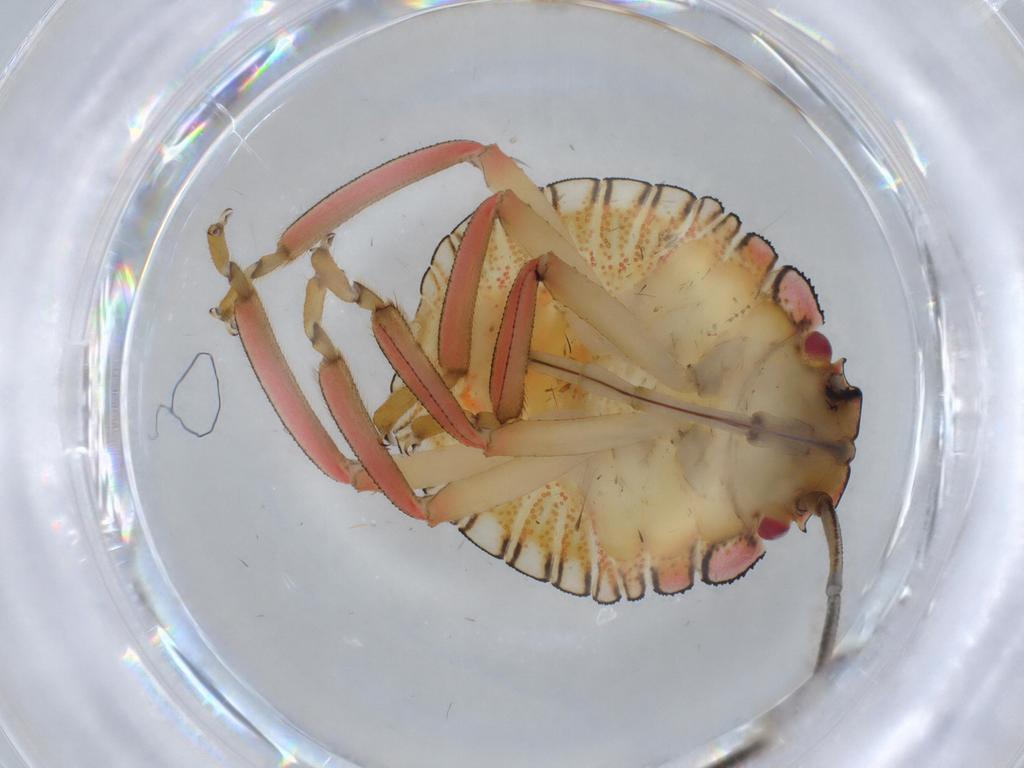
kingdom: Animalia
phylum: Arthropoda
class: Insecta
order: Hemiptera
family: Pentatomidae
